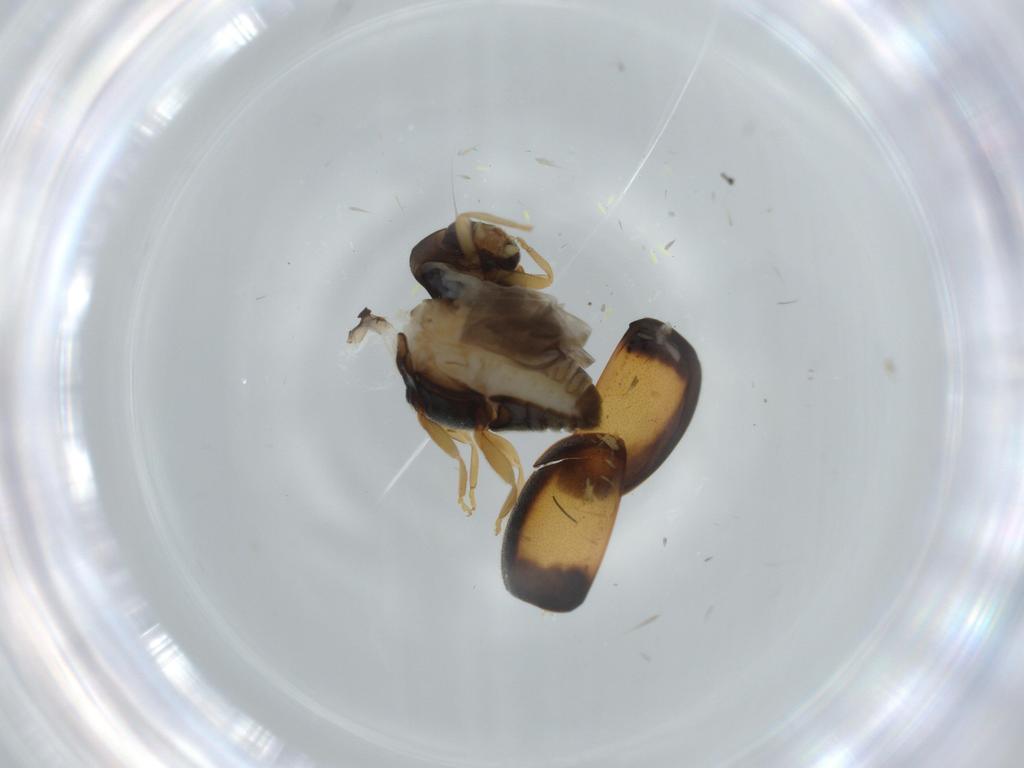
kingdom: Animalia
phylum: Arthropoda
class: Insecta
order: Coleoptera
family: Coccinellidae
